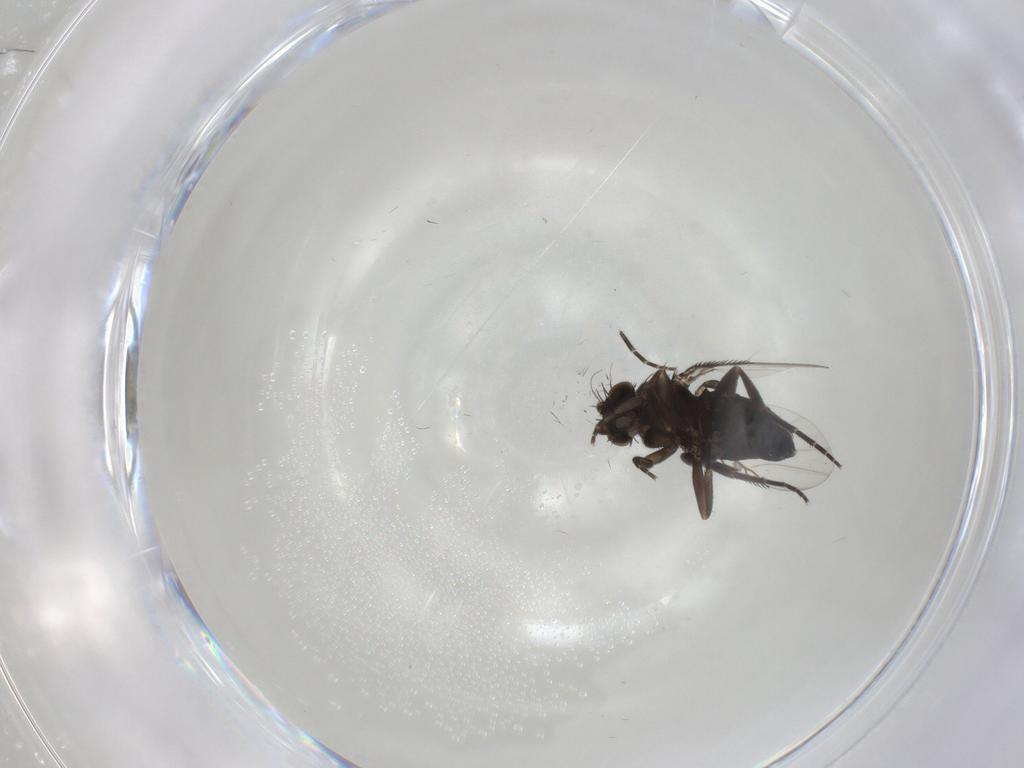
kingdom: Animalia
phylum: Arthropoda
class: Insecta
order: Diptera
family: Phoridae
